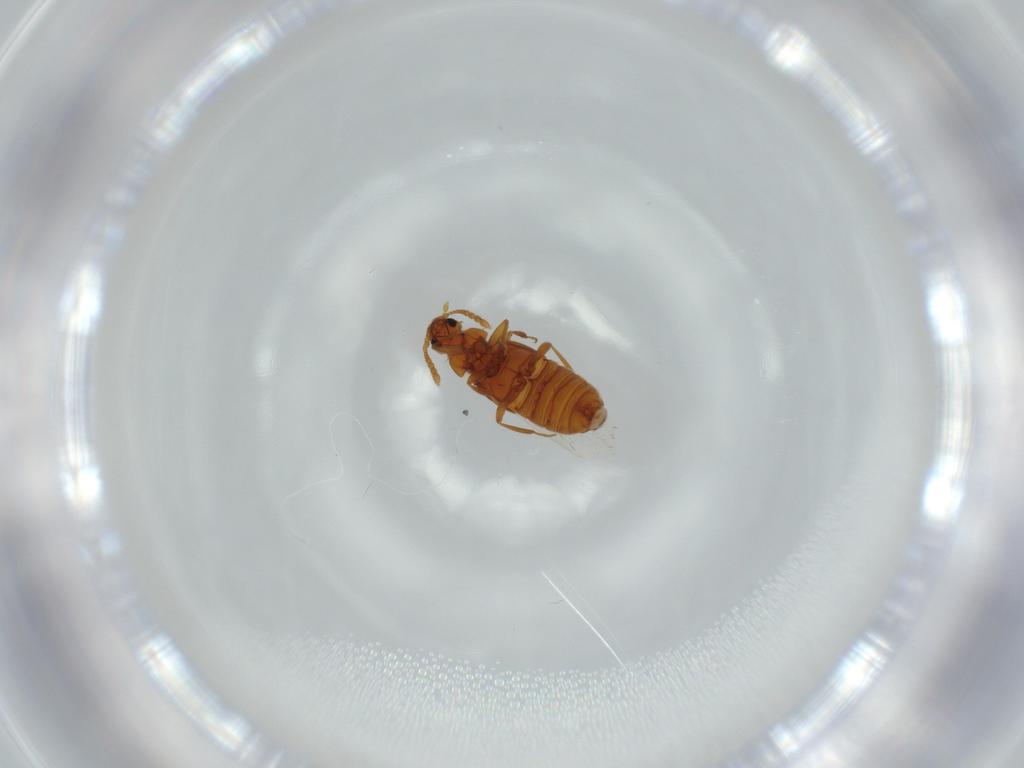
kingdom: Animalia
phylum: Arthropoda
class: Insecta
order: Coleoptera
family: Staphylinidae
